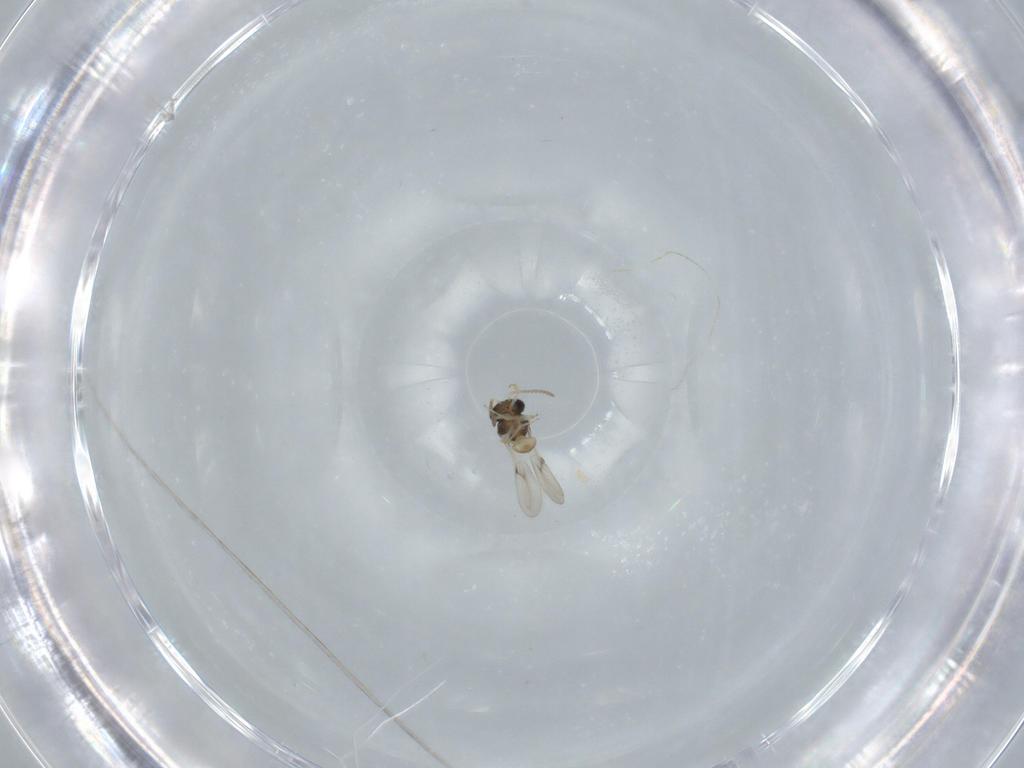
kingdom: Animalia
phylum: Arthropoda
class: Insecta
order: Hymenoptera
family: Scelionidae
